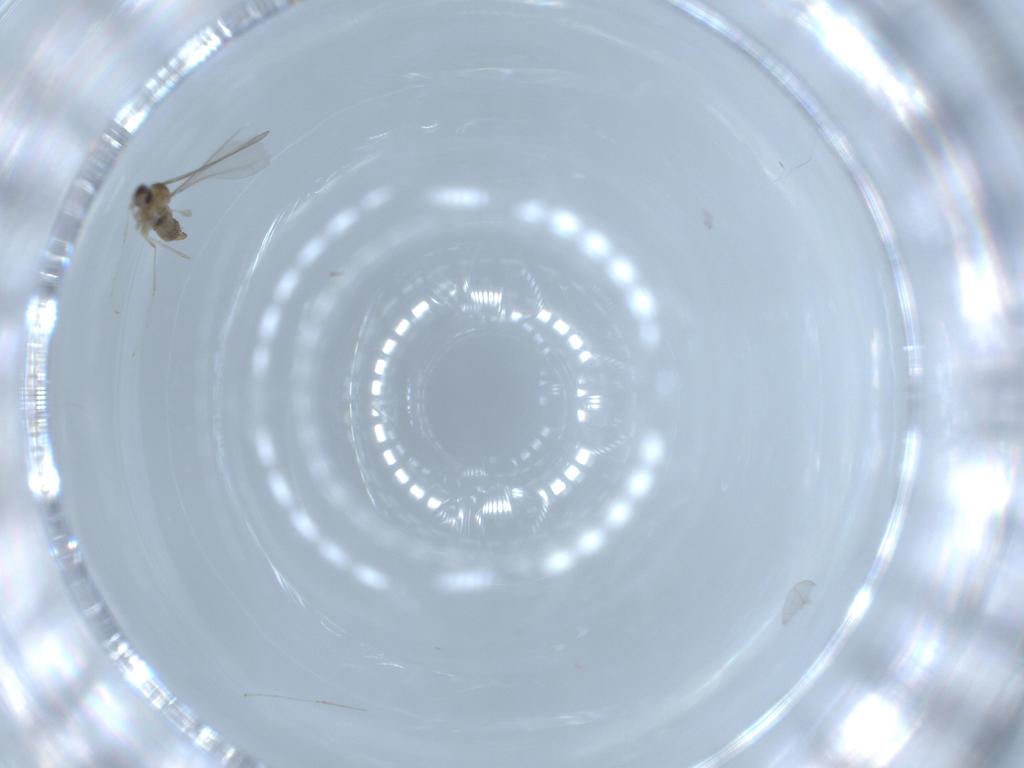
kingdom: Animalia
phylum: Arthropoda
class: Insecta
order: Diptera
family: Cecidomyiidae
